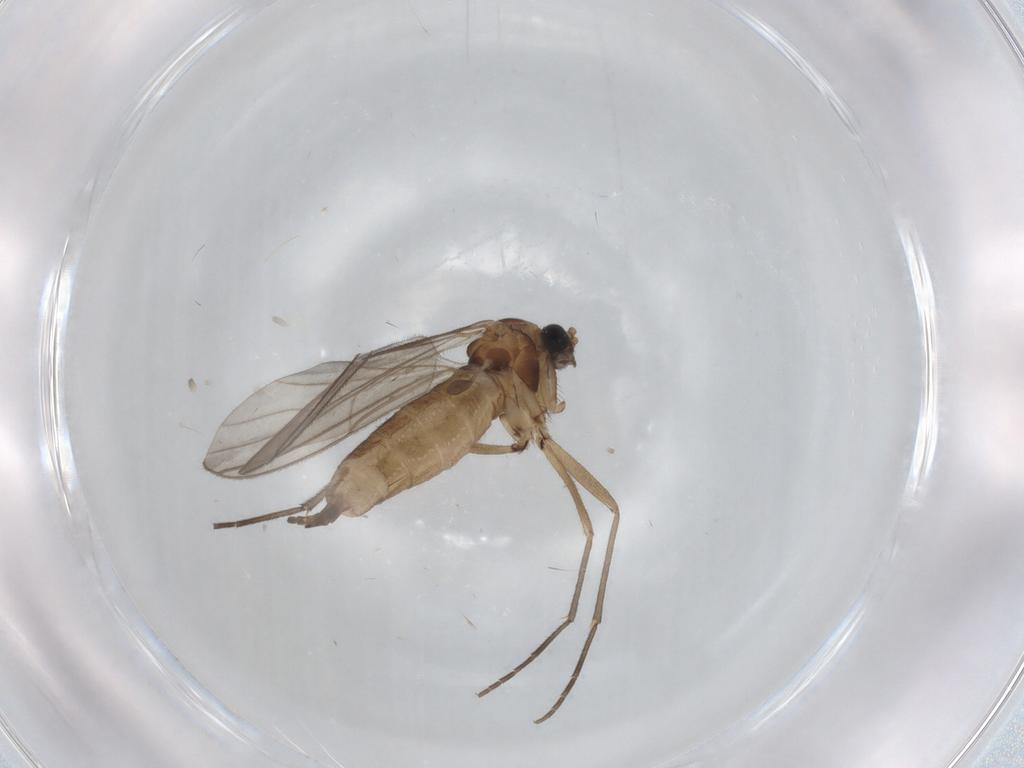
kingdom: Animalia
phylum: Arthropoda
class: Insecta
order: Diptera
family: Sciaridae
